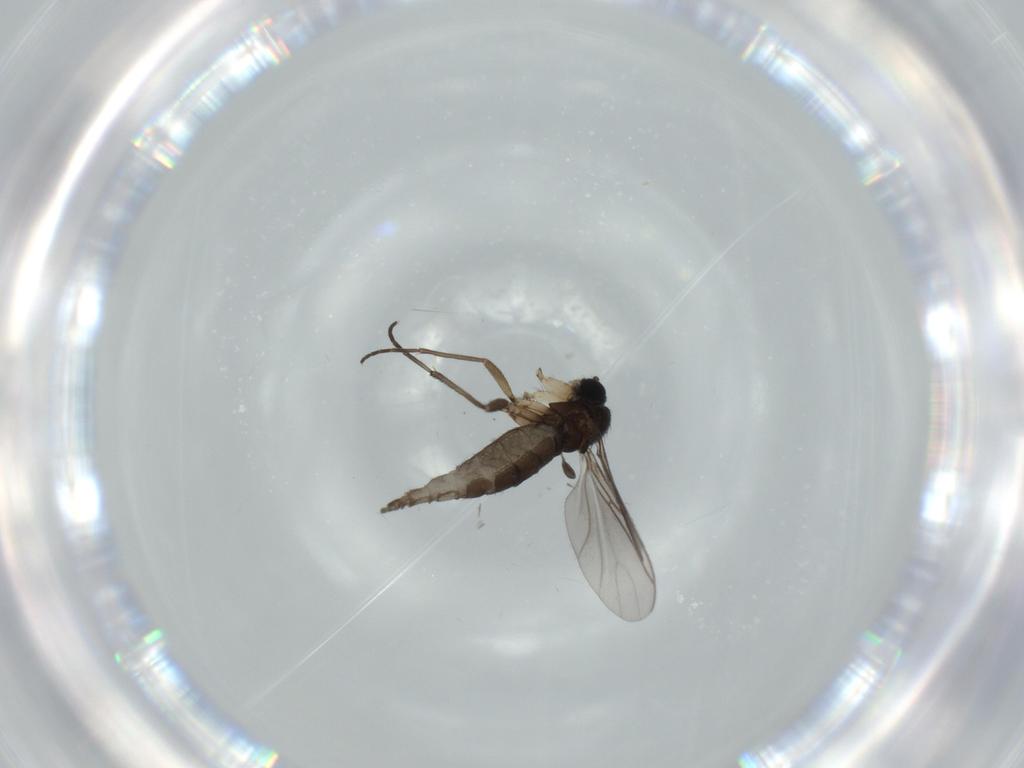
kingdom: Animalia
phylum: Arthropoda
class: Insecta
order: Diptera
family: Sciaridae
